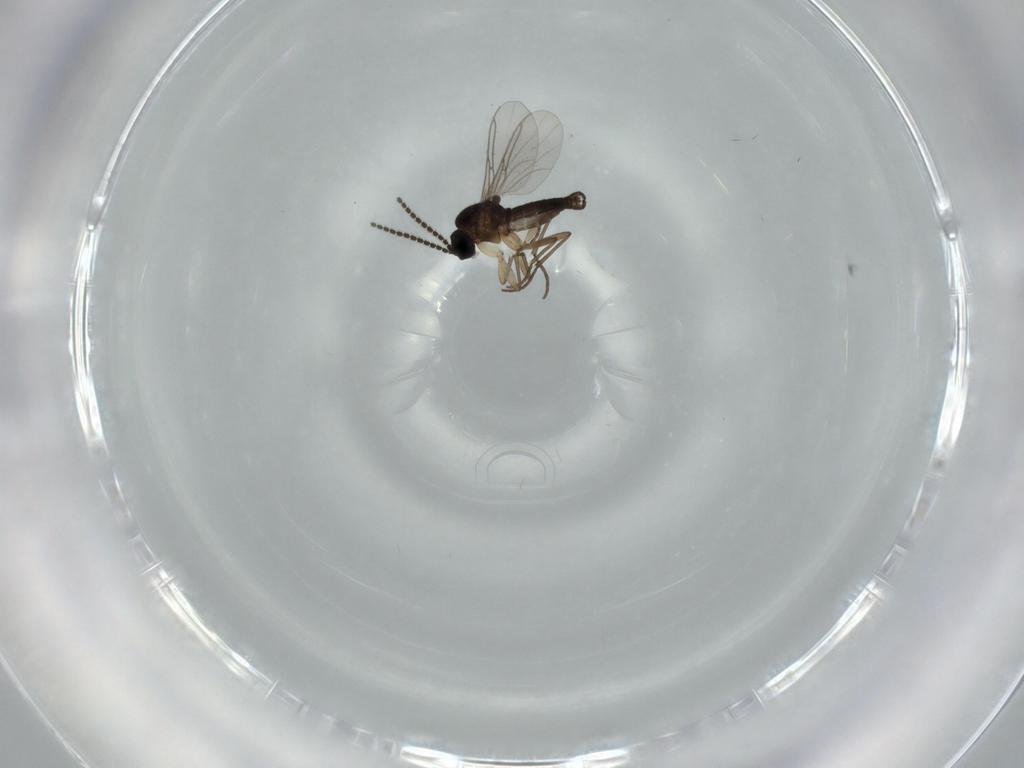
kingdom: Animalia
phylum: Arthropoda
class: Insecta
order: Diptera
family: Sciaridae
